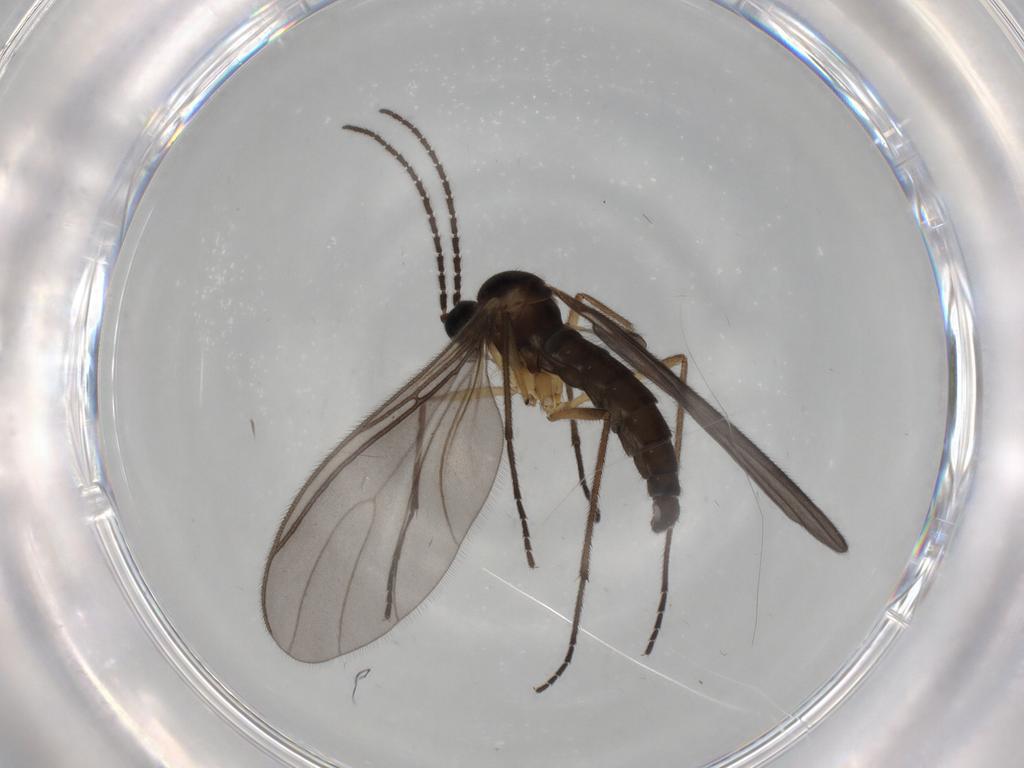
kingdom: Animalia
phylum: Arthropoda
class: Insecta
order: Diptera
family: Sciaridae
